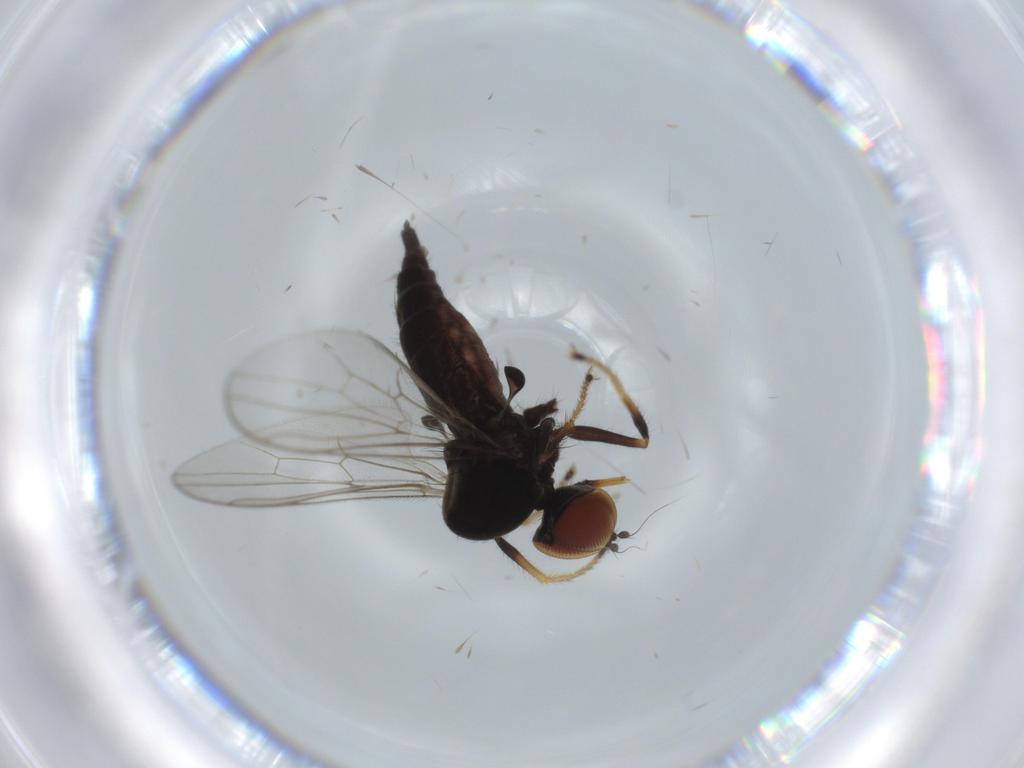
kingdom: Animalia
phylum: Arthropoda
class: Insecta
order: Diptera
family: Hybotidae
